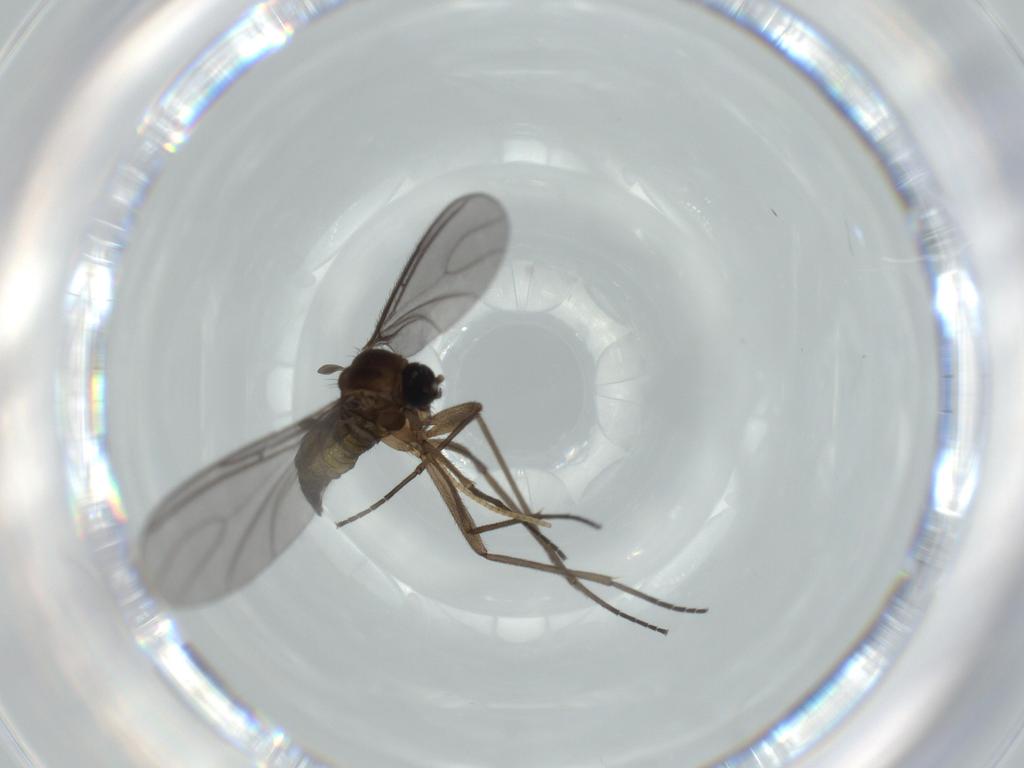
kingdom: Animalia
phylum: Arthropoda
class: Insecta
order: Diptera
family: Sciaridae
